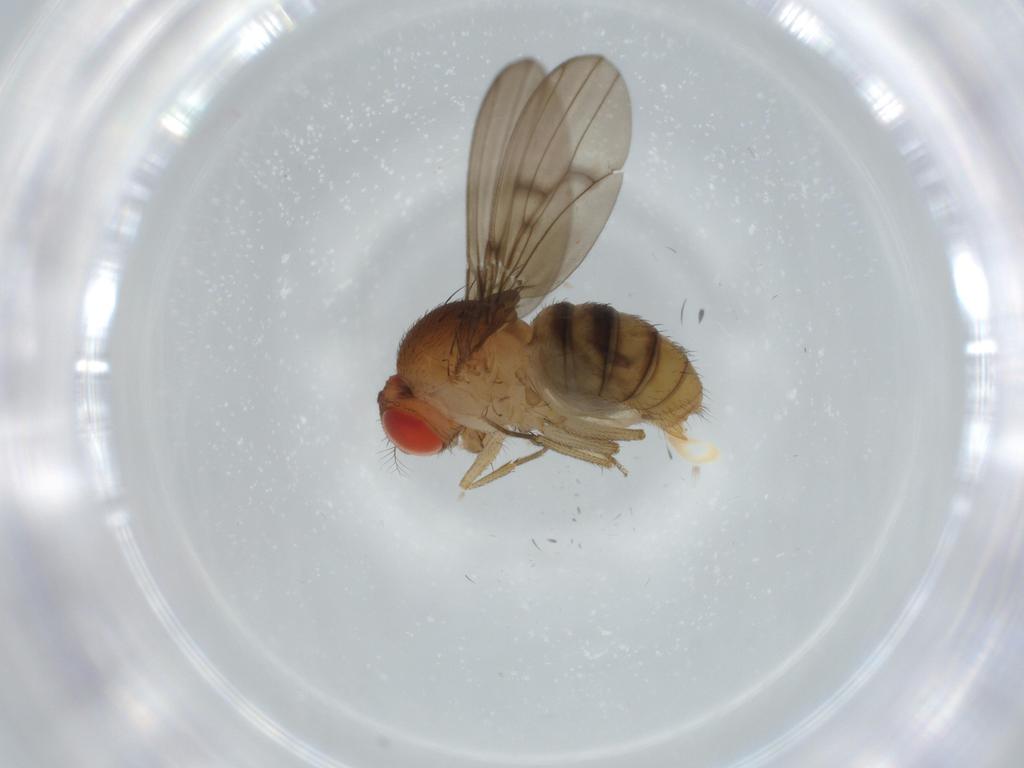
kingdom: Animalia
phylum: Arthropoda
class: Insecta
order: Diptera
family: Drosophilidae
